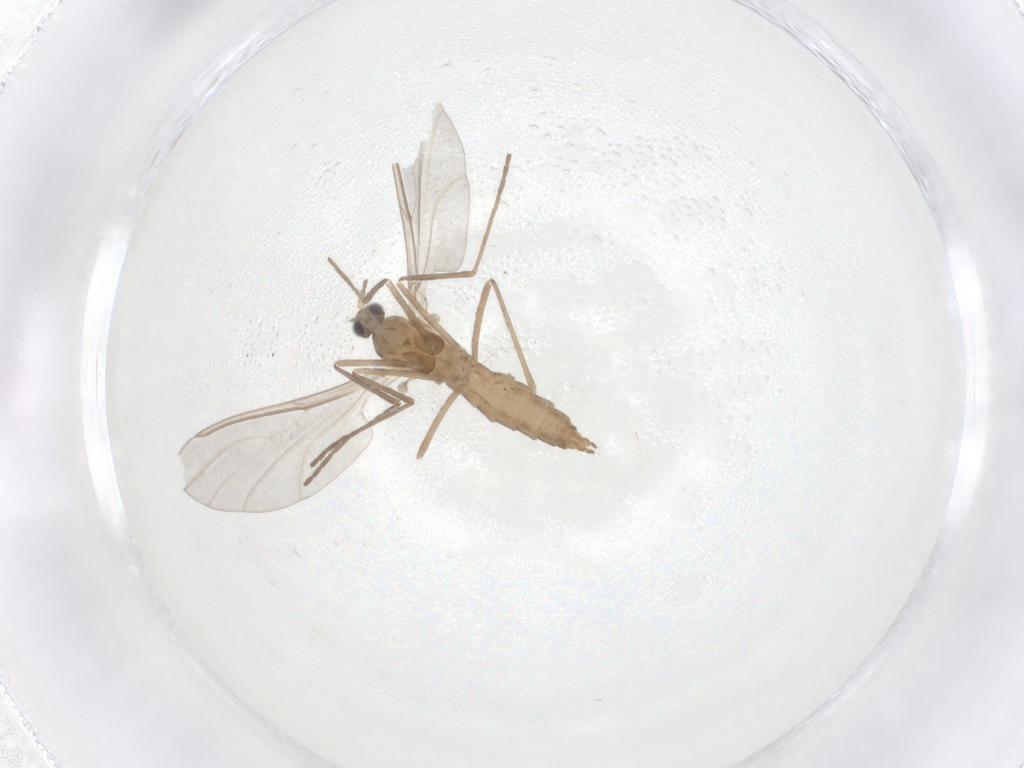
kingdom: Animalia
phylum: Arthropoda
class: Insecta
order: Diptera
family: Cecidomyiidae
